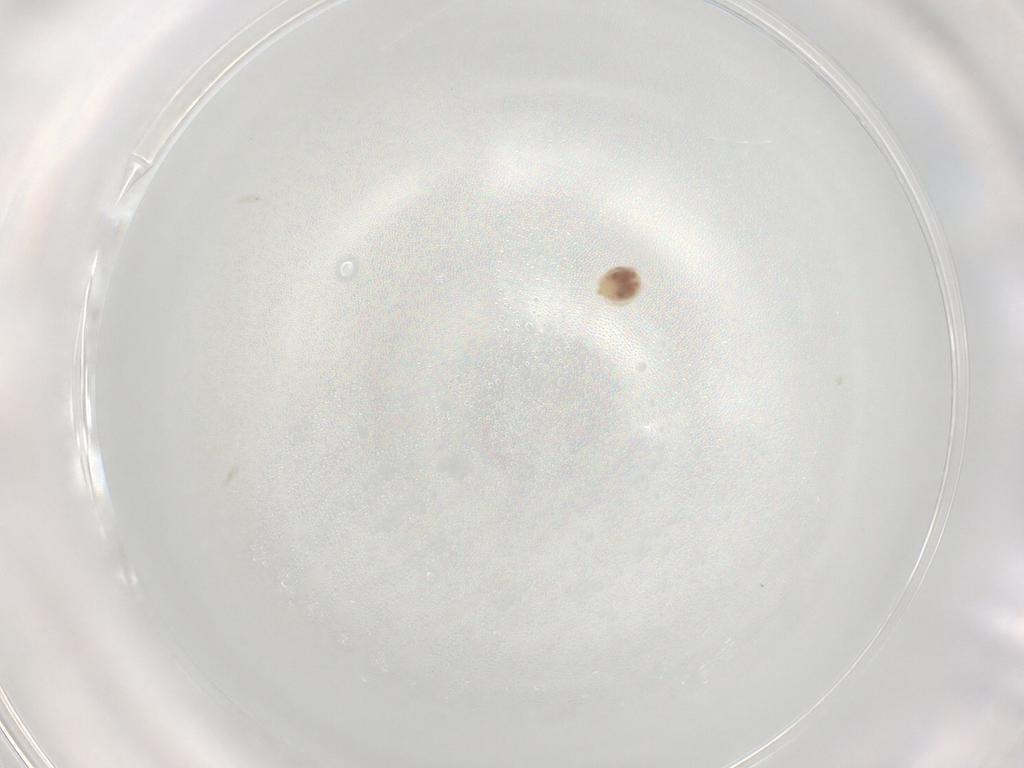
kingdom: Animalia
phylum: Arthropoda
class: Arachnida
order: Trombidiformes
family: Hygrobatidae
